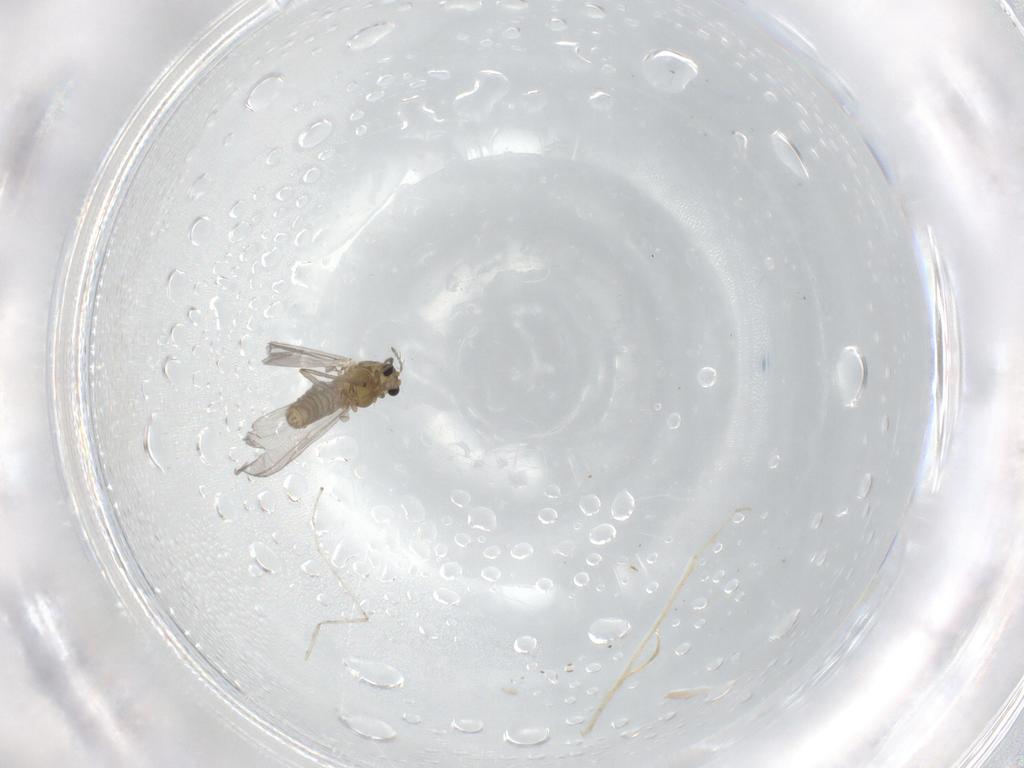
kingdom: Animalia
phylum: Arthropoda
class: Insecta
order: Diptera
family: Chironomidae
